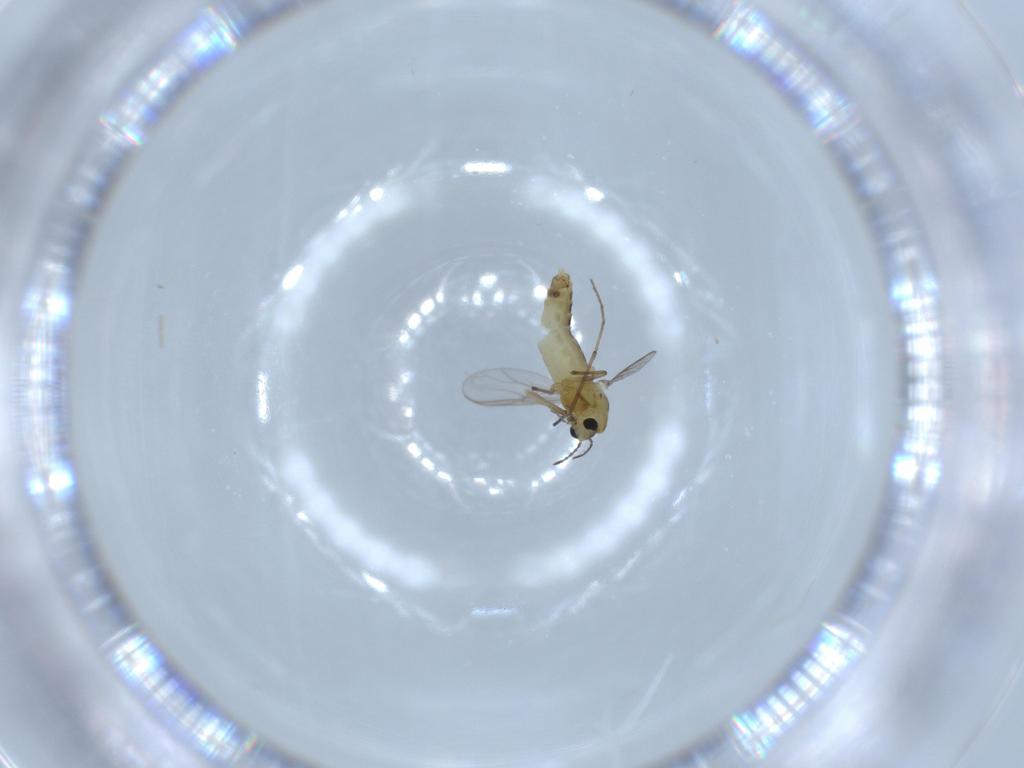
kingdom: Animalia
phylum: Arthropoda
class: Insecta
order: Diptera
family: Chironomidae
